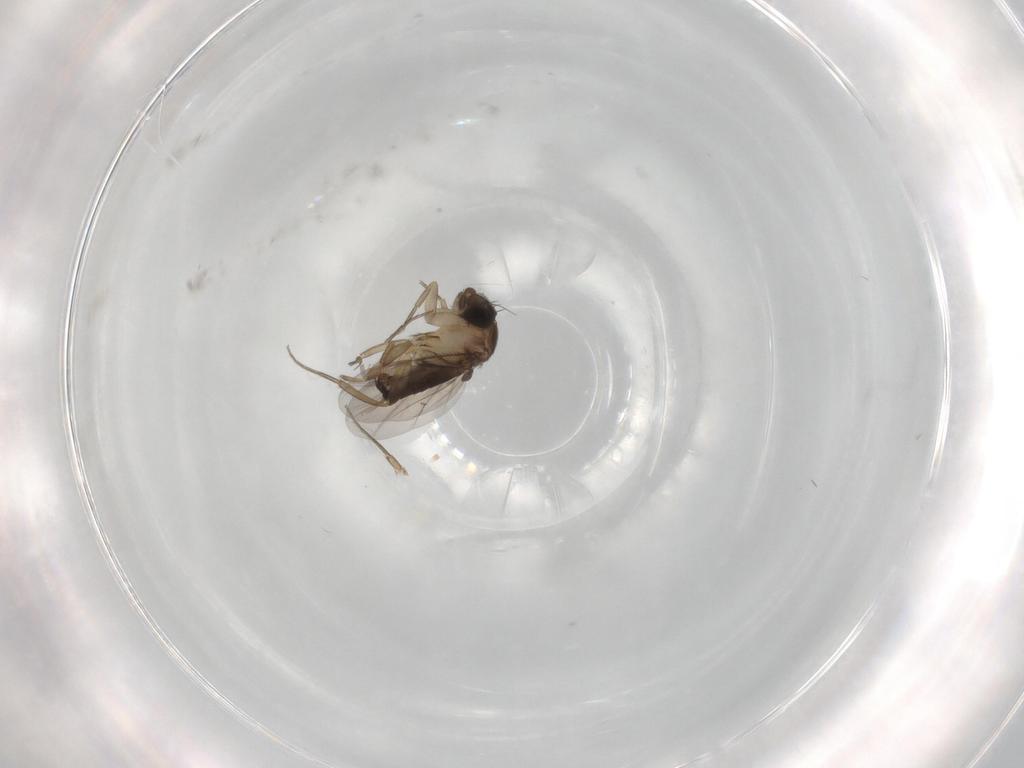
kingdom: Animalia
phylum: Arthropoda
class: Insecta
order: Diptera
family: Phoridae
